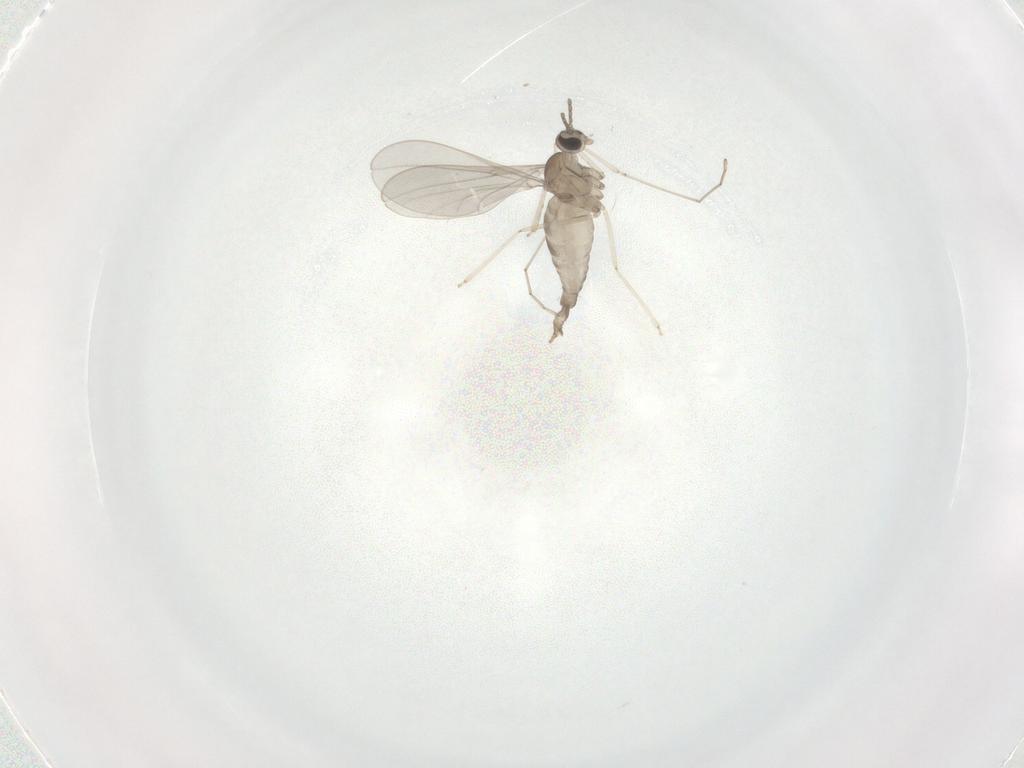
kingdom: Animalia
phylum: Arthropoda
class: Insecta
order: Diptera
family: Cecidomyiidae
